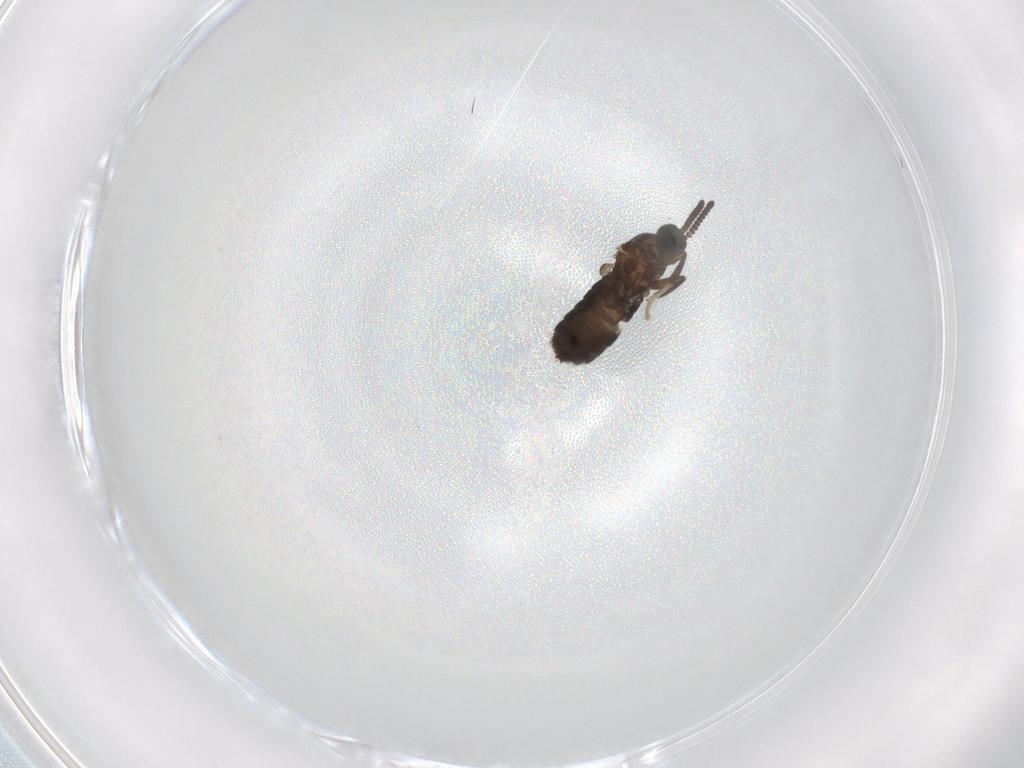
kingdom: Animalia
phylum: Arthropoda
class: Insecta
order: Diptera
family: Scatopsidae
